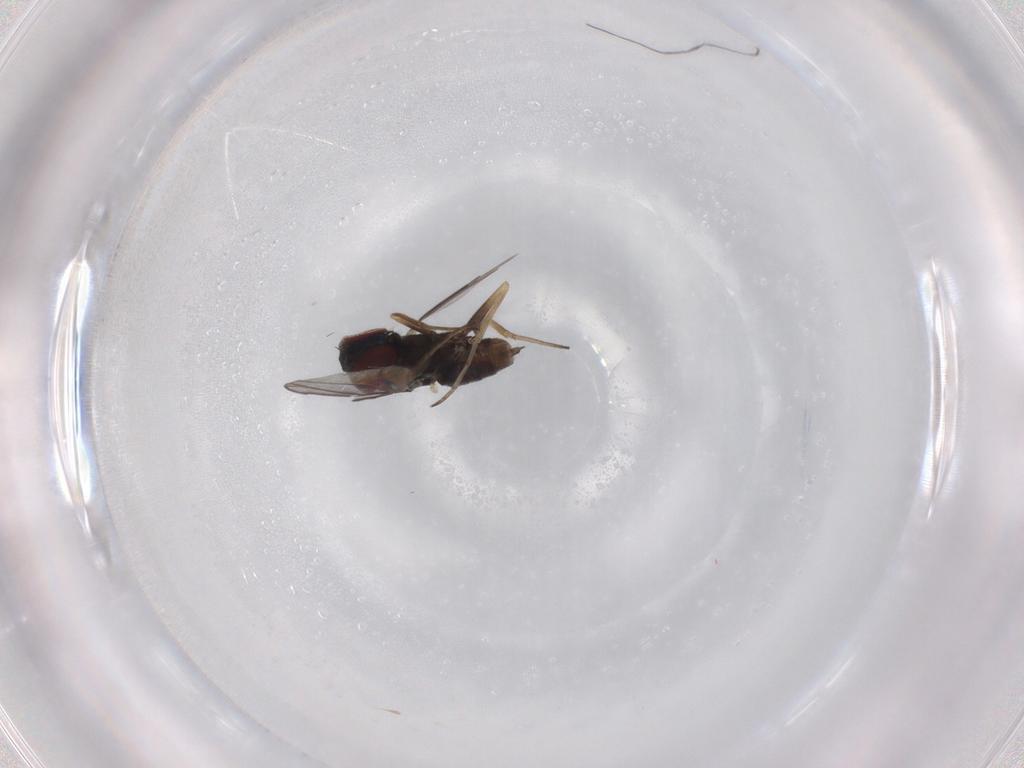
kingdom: Animalia
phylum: Arthropoda
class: Insecta
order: Diptera
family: Dolichopodidae
